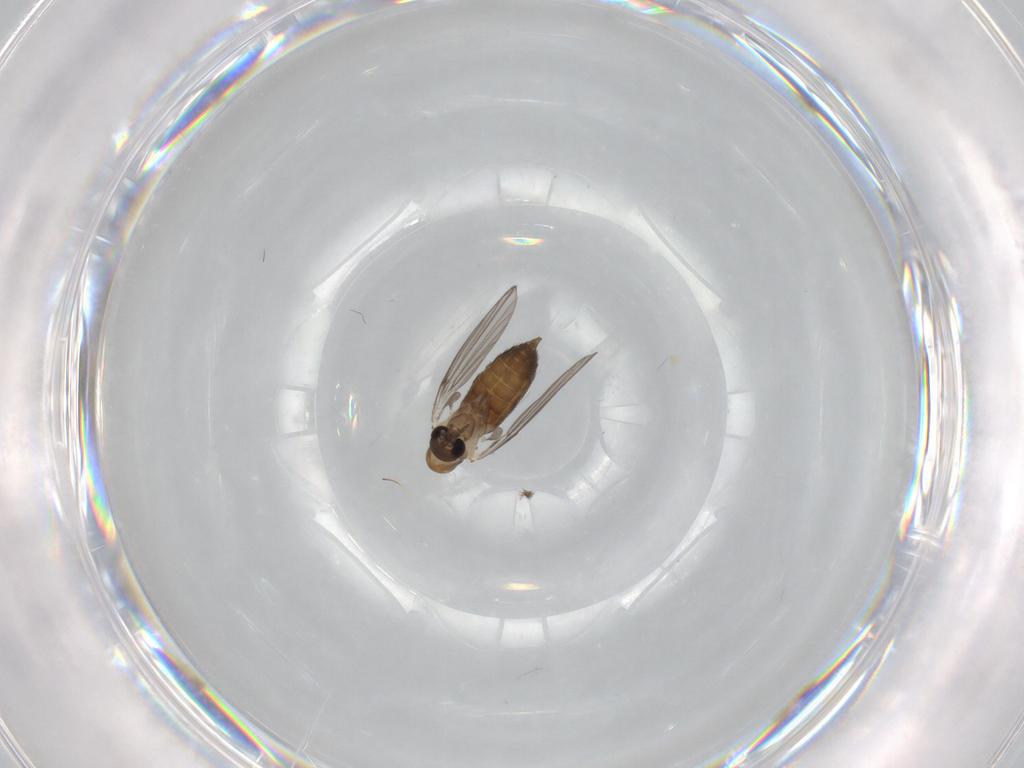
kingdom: Animalia
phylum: Arthropoda
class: Insecta
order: Diptera
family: Psychodidae
